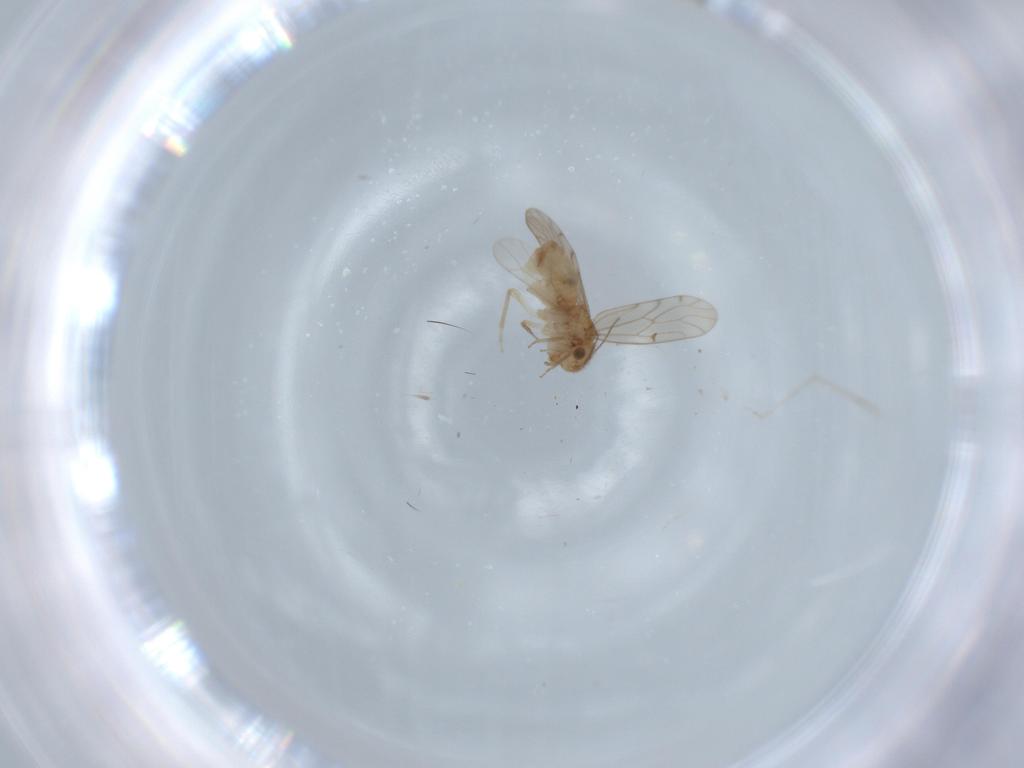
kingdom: Animalia
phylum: Arthropoda
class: Insecta
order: Psocodea
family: Ectopsocidae
